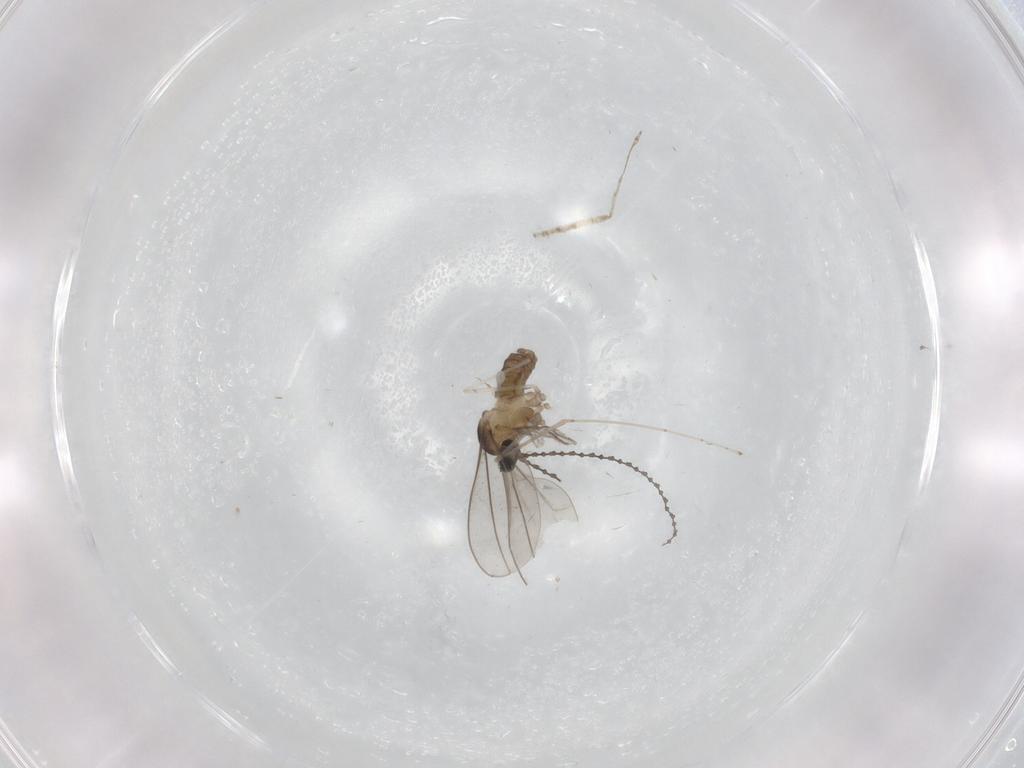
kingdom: Animalia
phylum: Arthropoda
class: Insecta
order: Diptera
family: Cecidomyiidae
